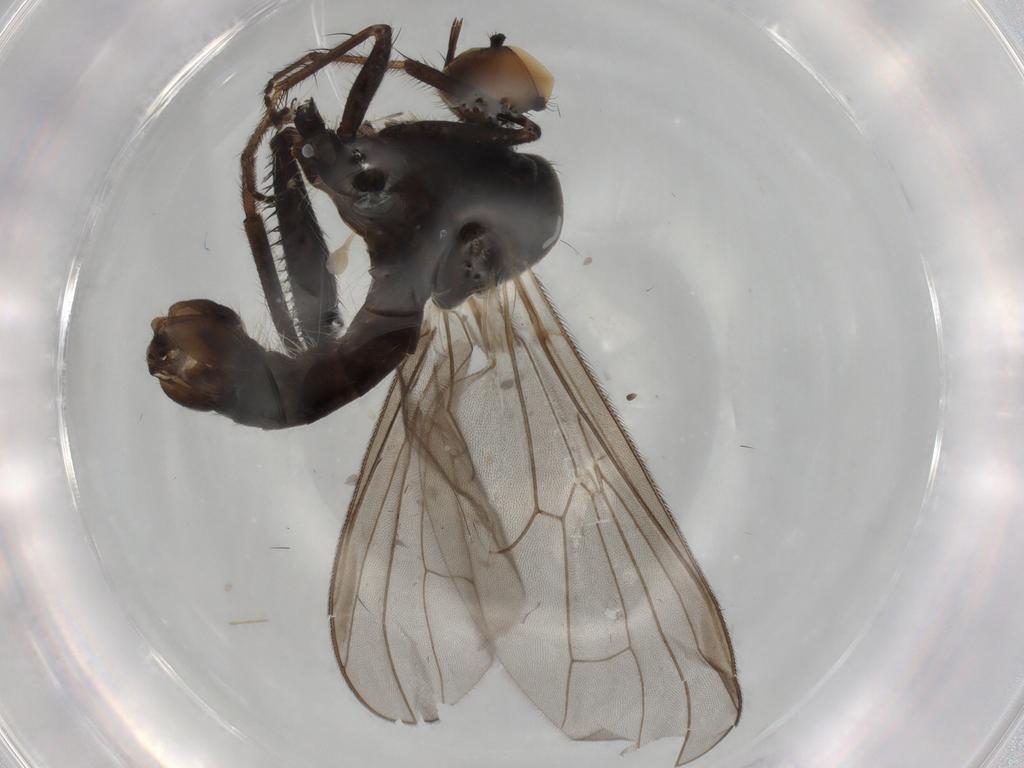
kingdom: Animalia
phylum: Arthropoda
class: Insecta
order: Diptera
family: Hybotidae
